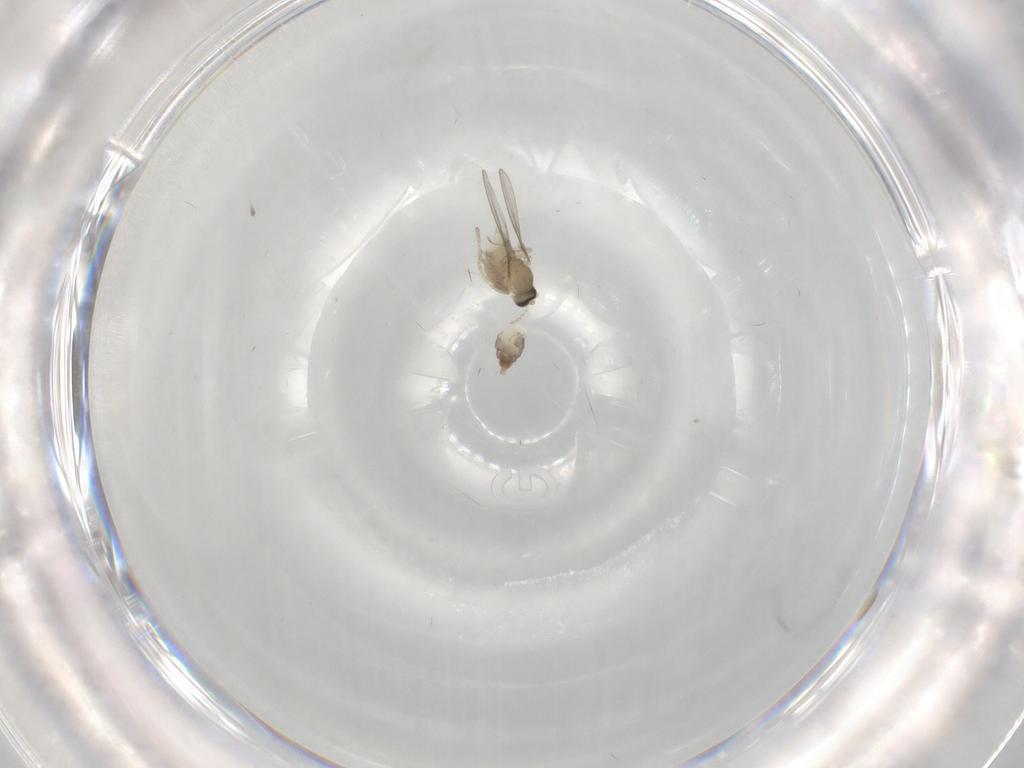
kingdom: Animalia
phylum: Arthropoda
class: Insecta
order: Diptera
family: Cecidomyiidae
